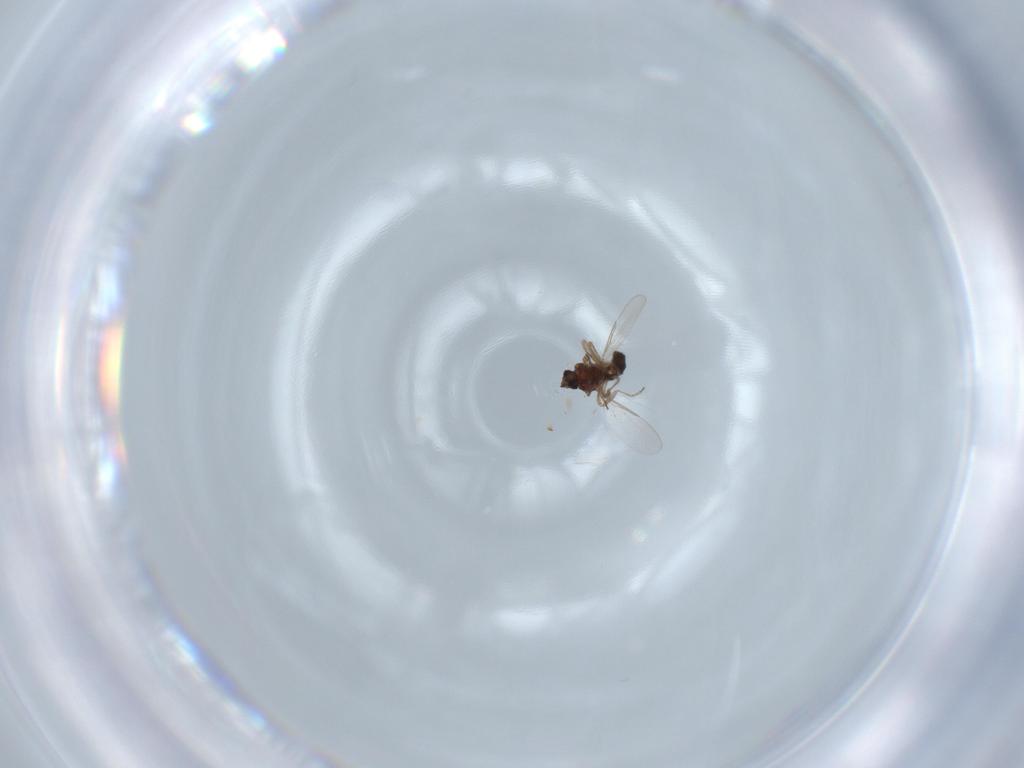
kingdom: Animalia
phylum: Arthropoda
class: Insecta
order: Diptera
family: Ceratopogonidae
